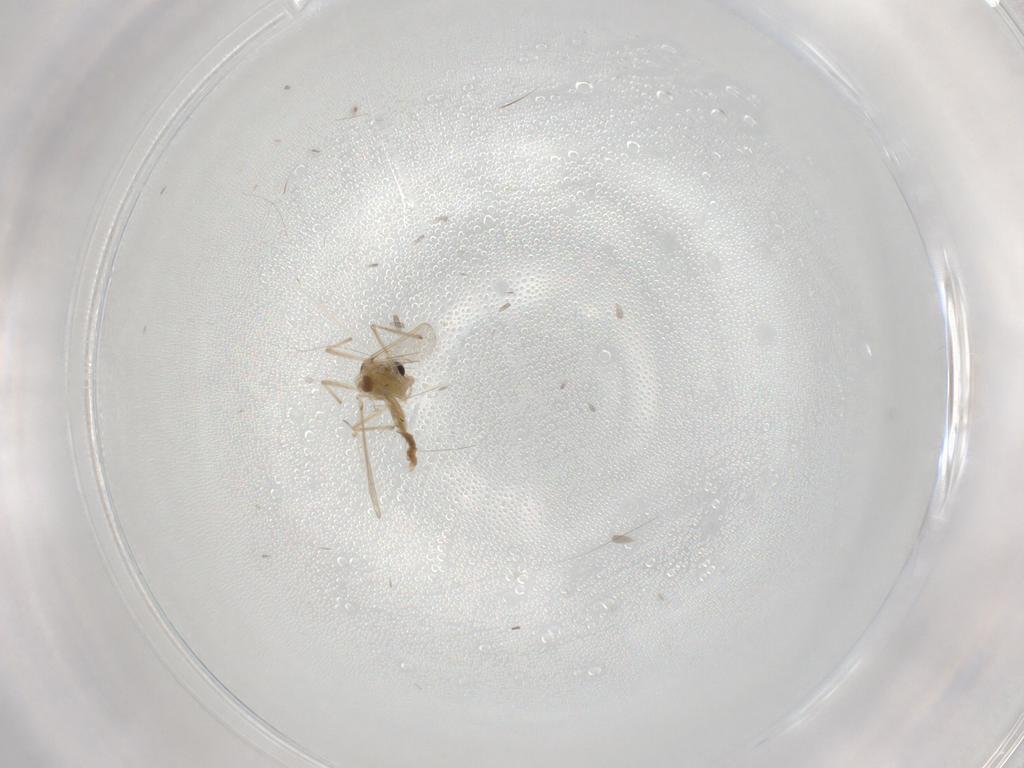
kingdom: Animalia
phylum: Arthropoda
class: Insecta
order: Diptera
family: Chironomidae
